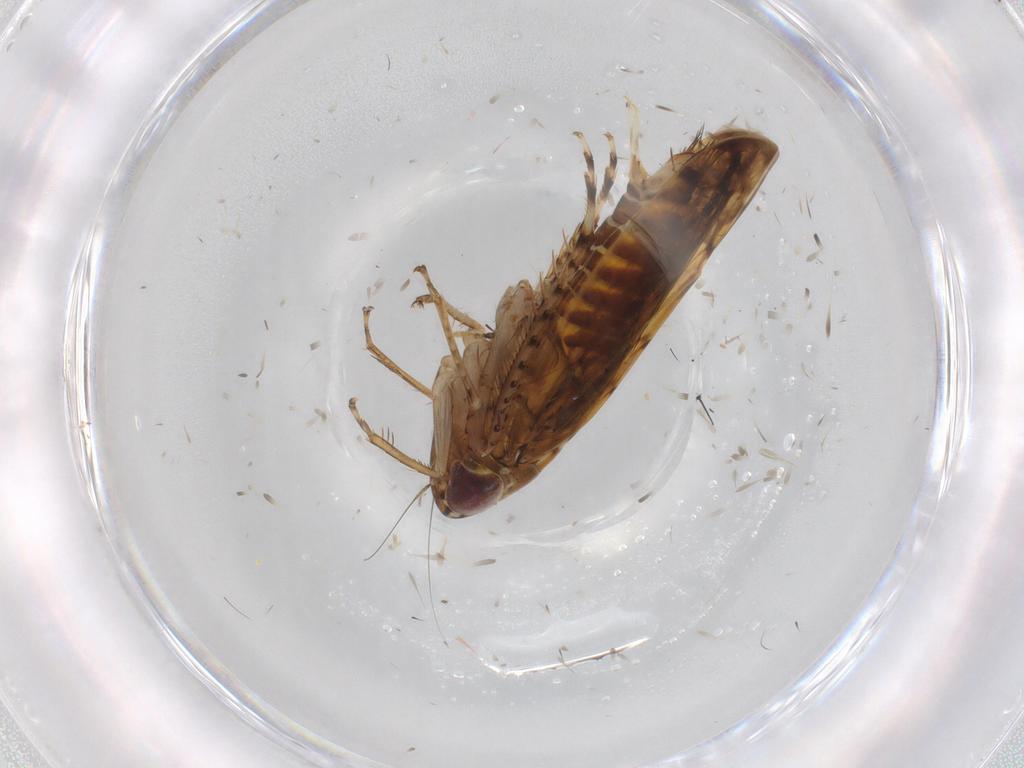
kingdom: Animalia
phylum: Arthropoda
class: Insecta
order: Hemiptera
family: Cicadellidae
